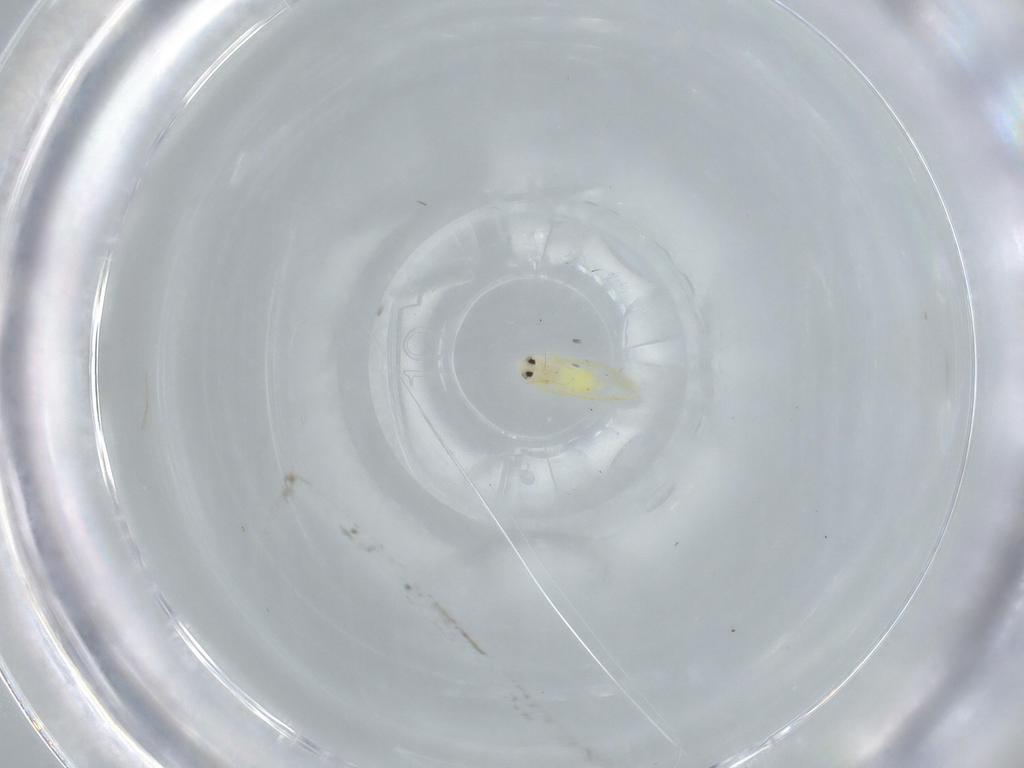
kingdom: Animalia
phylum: Arthropoda
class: Insecta
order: Hemiptera
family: Aleyrodidae
